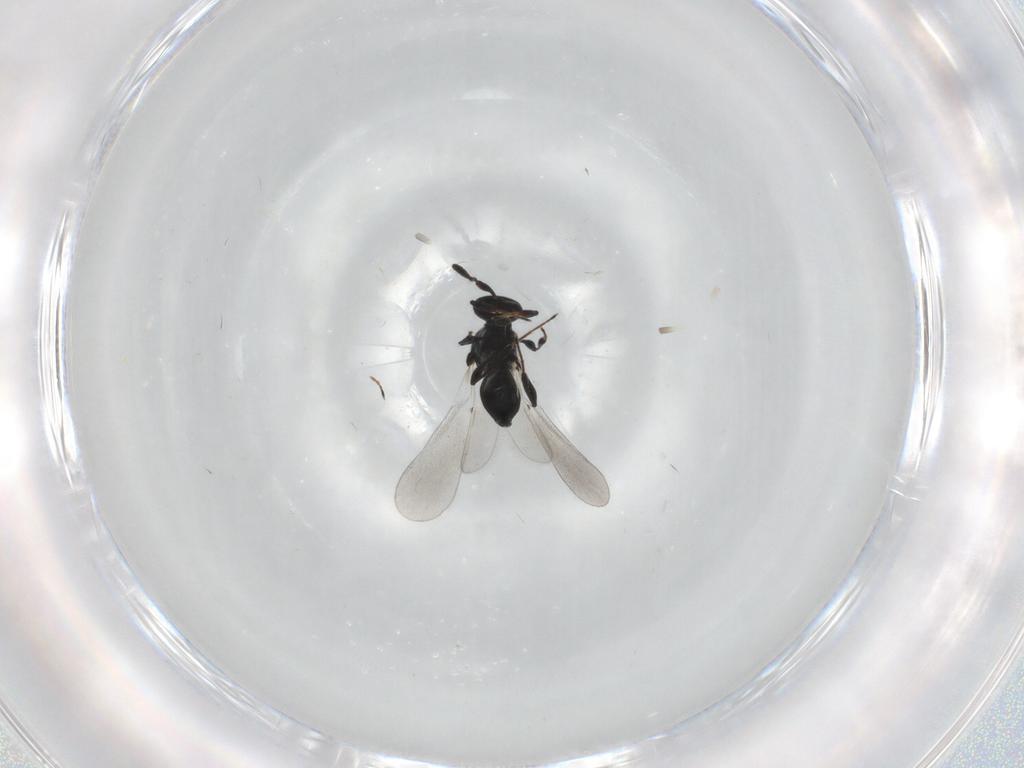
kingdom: Animalia
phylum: Arthropoda
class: Insecta
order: Hymenoptera
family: Platygastridae
